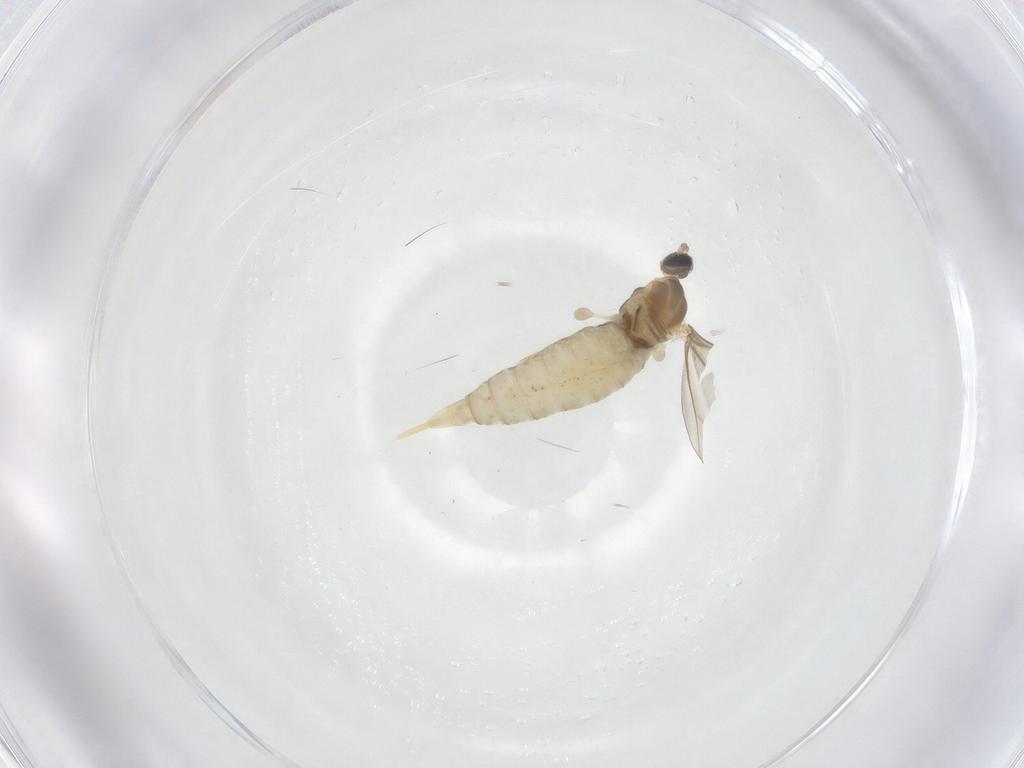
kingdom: Animalia
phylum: Arthropoda
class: Insecta
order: Diptera
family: Cecidomyiidae
